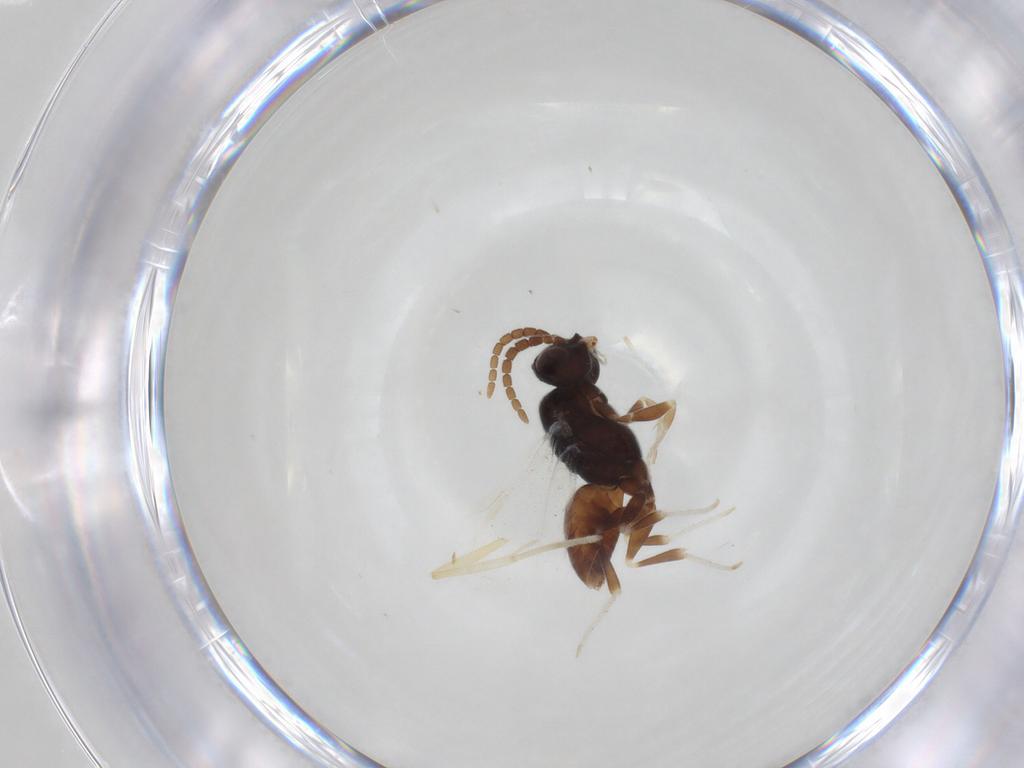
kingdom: Animalia
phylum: Arthropoda
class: Insecta
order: Hymenoptera
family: Dryinidae
